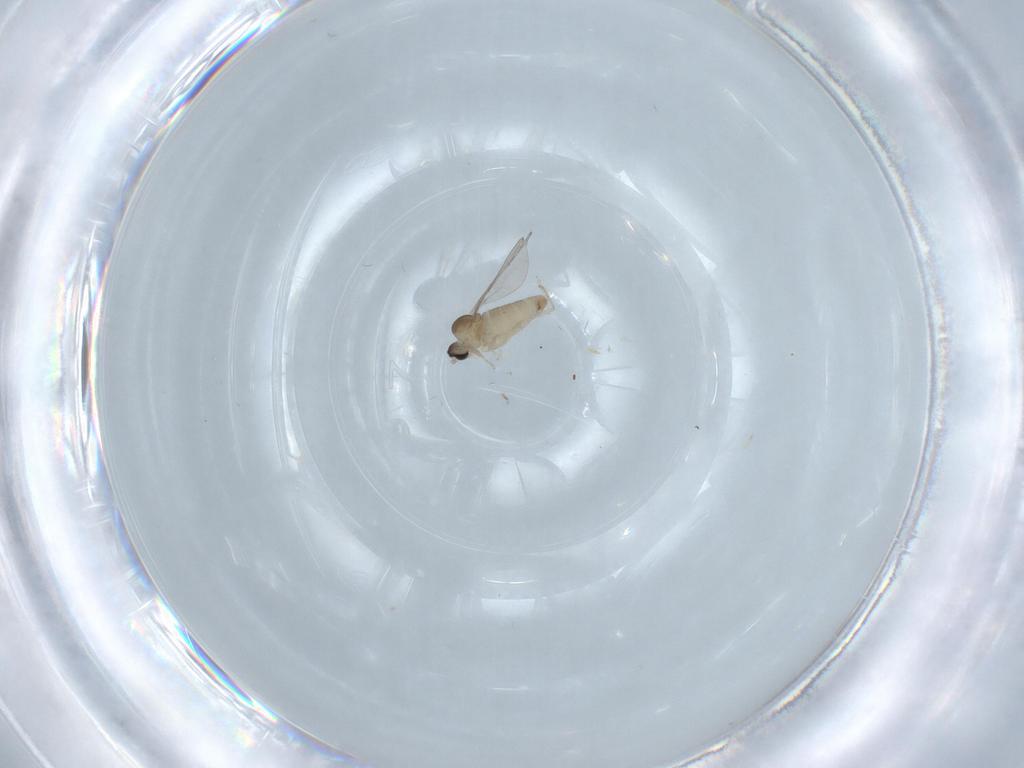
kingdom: Animalia
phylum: Arthropoda
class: Insecta
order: Diptera
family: Cecidomyiidae
